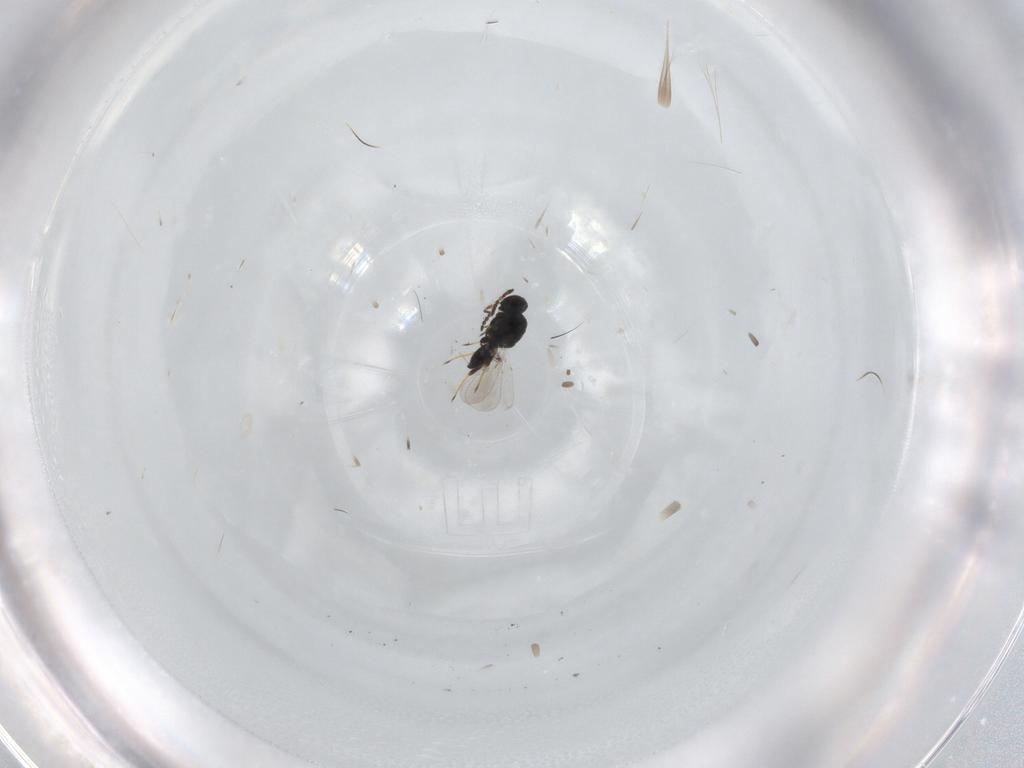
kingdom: Animalia
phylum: Arthropoda
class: Insecta
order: Hymenoptera
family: Platygastridae
